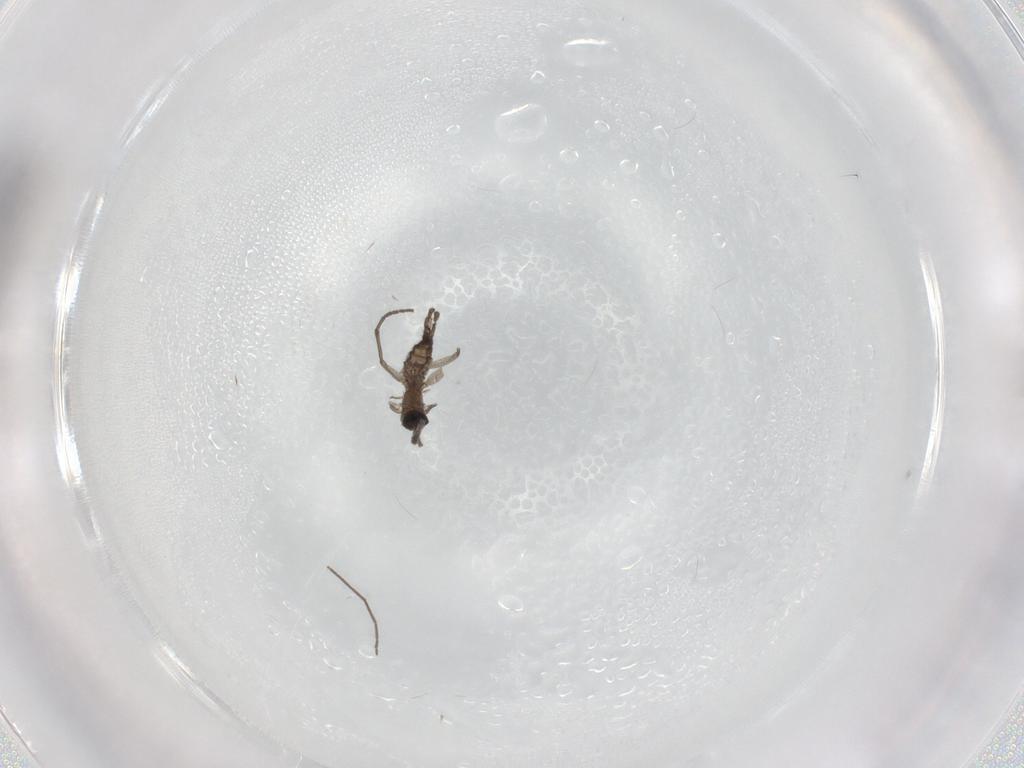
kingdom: Animalia
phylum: Arthropoda
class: Insecta
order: Diptera
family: Sciaridae
